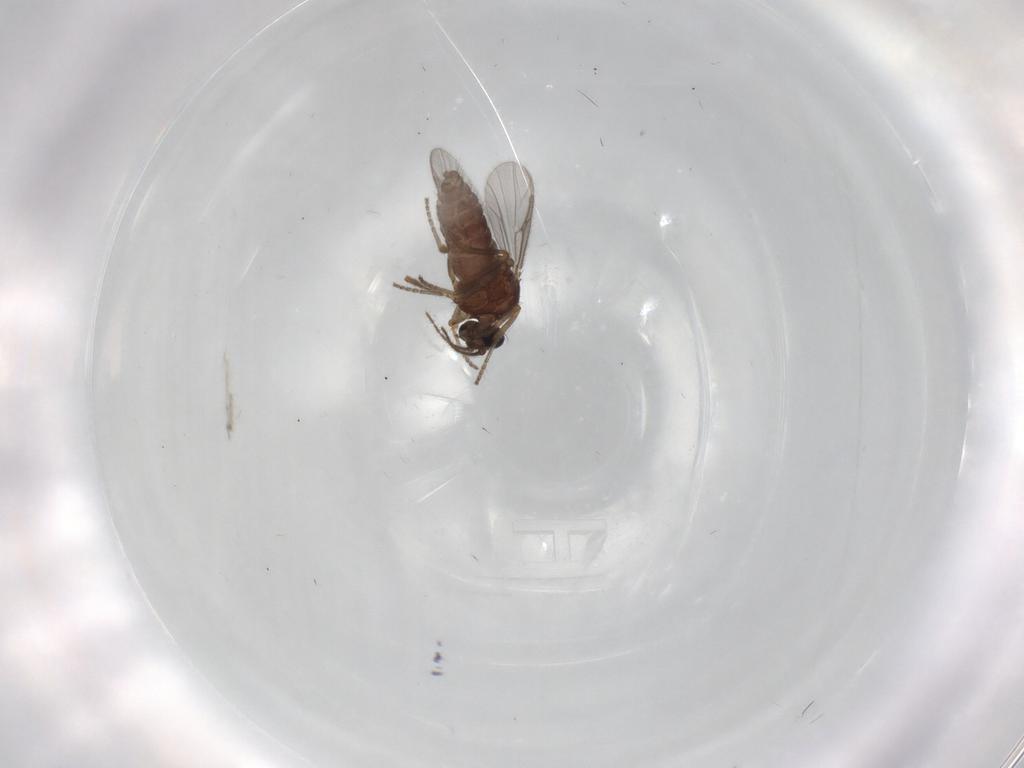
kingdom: Animalia
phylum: Arthropoda
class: Insecta
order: Diptera
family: Ceratopogonidae
